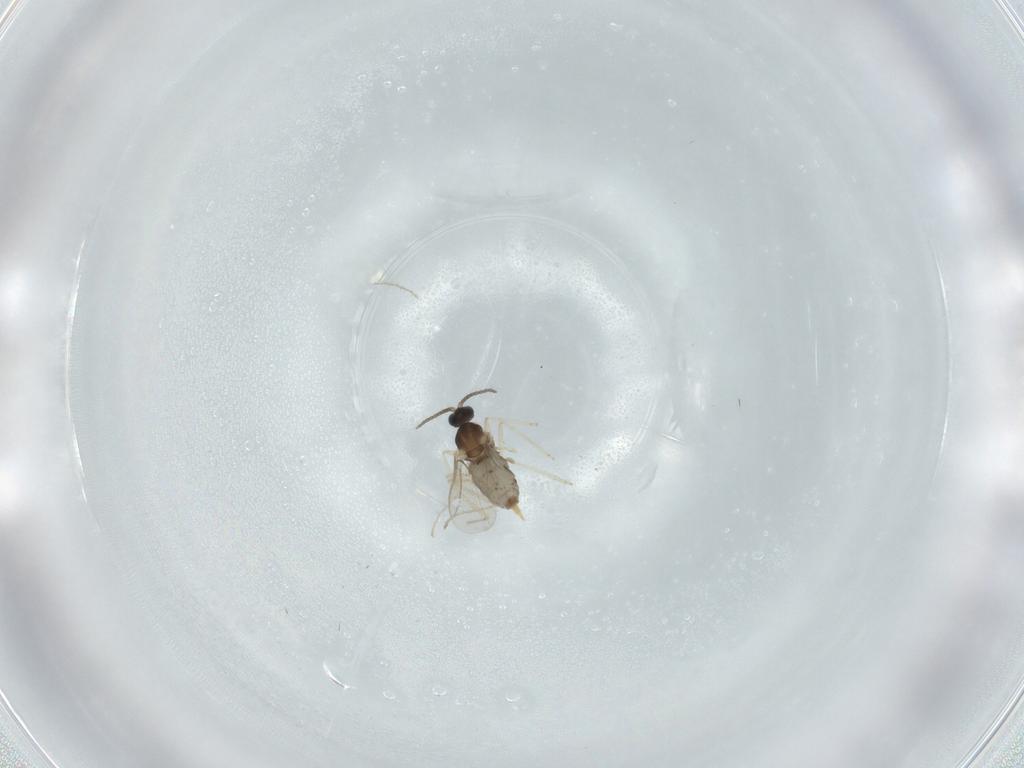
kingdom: Animalia
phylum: Arthropoda
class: Insecta
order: Diptera
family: Cecidomyiidae
